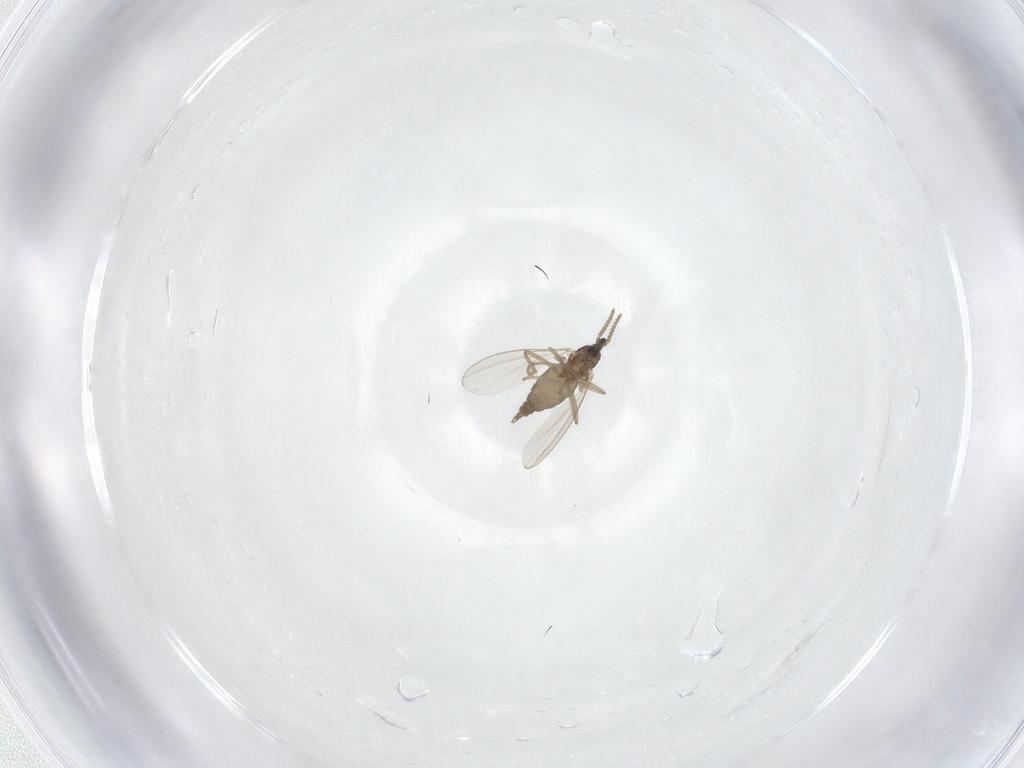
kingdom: Animalia
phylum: Arthropoda
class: Insecta
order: Diptera
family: Cecidomyiidae
